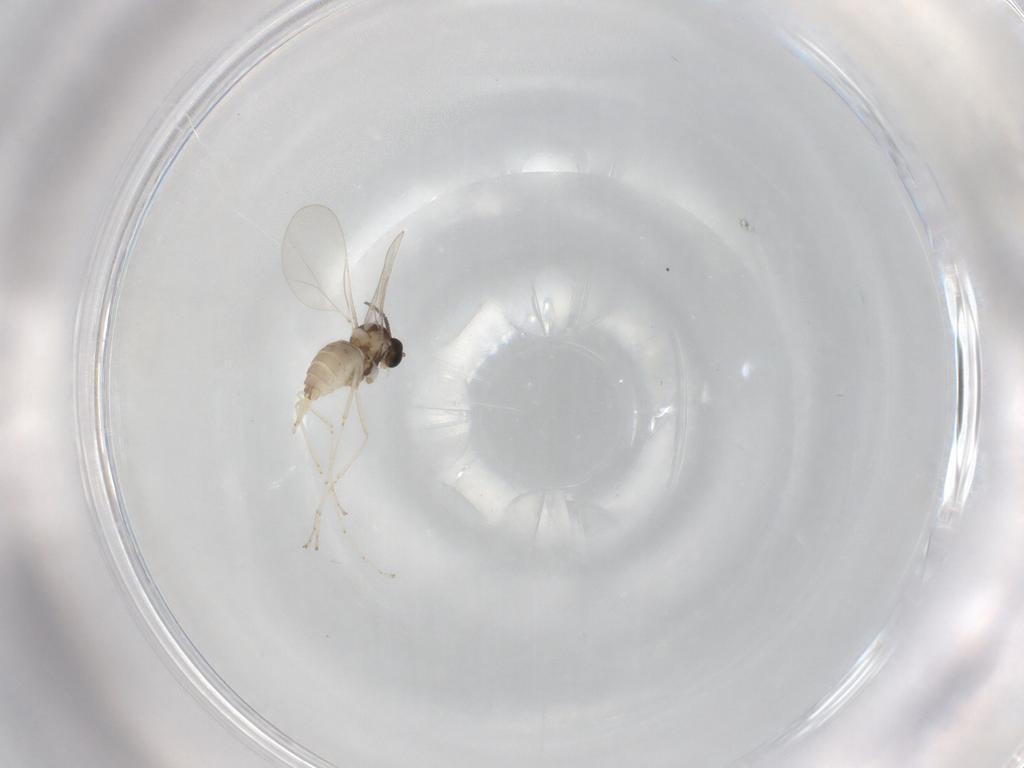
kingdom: Animalia
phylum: Arthropoda
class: Insecta
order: Diptera
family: Cecidomyiidae
